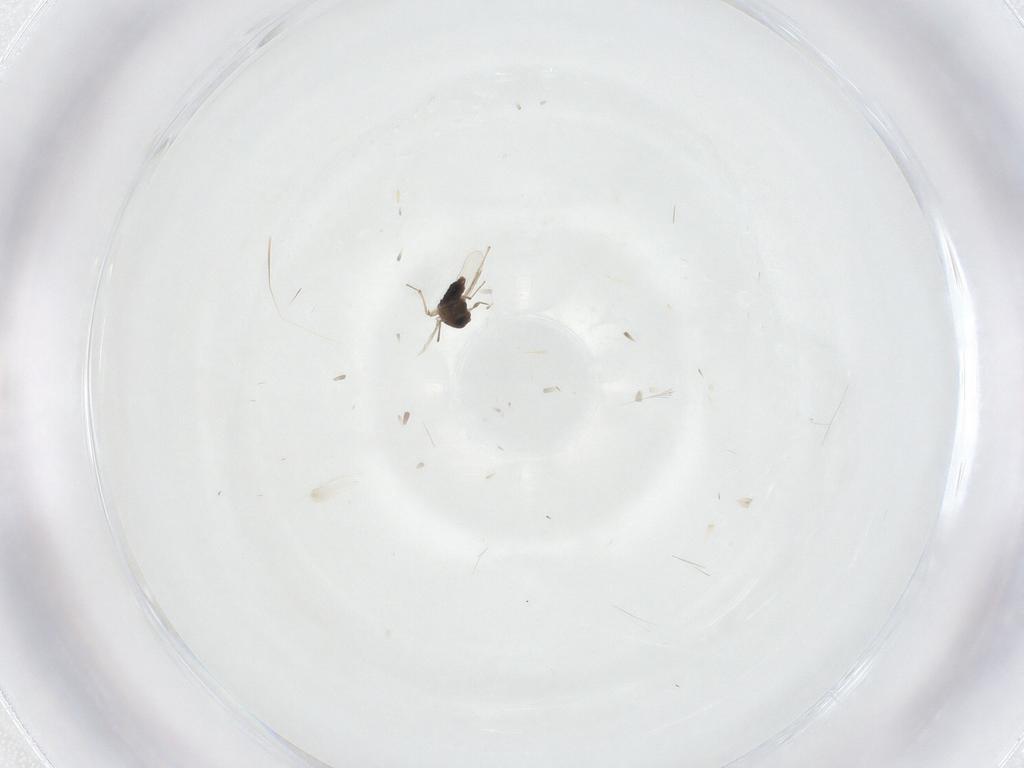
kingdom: Animalia
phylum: Arthropoda
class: Insecta
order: Diptera
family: Chironomidae
